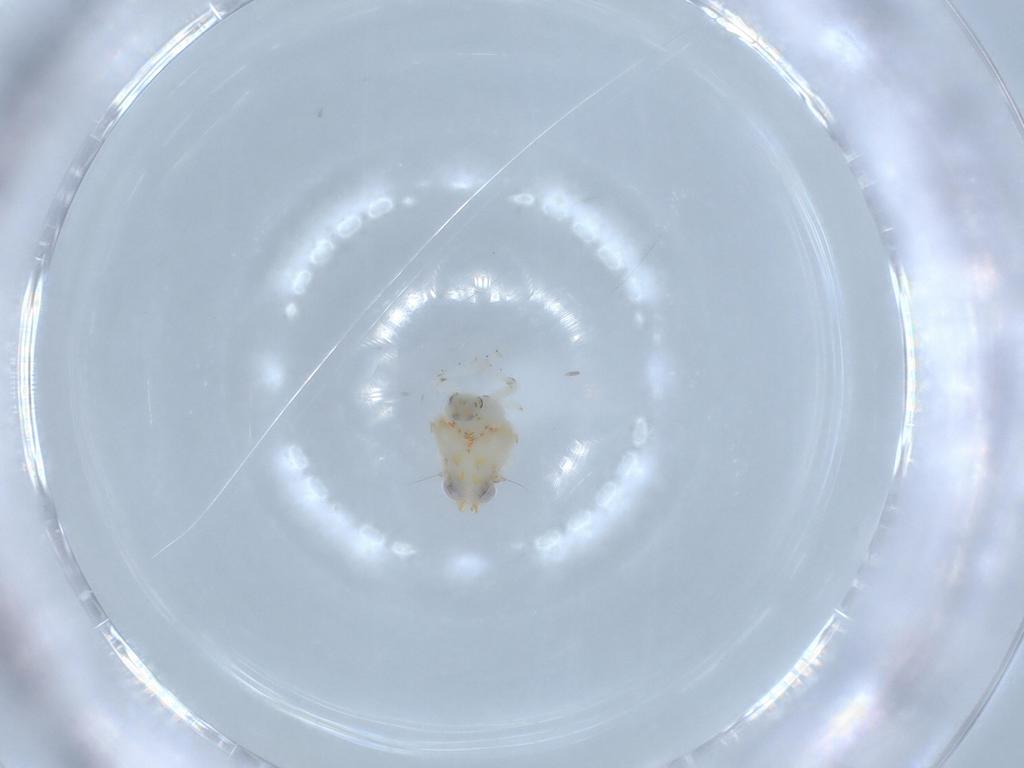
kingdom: Animalia
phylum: Arthropoda
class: Insecta
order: Hemiptera
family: Nogodinidae
